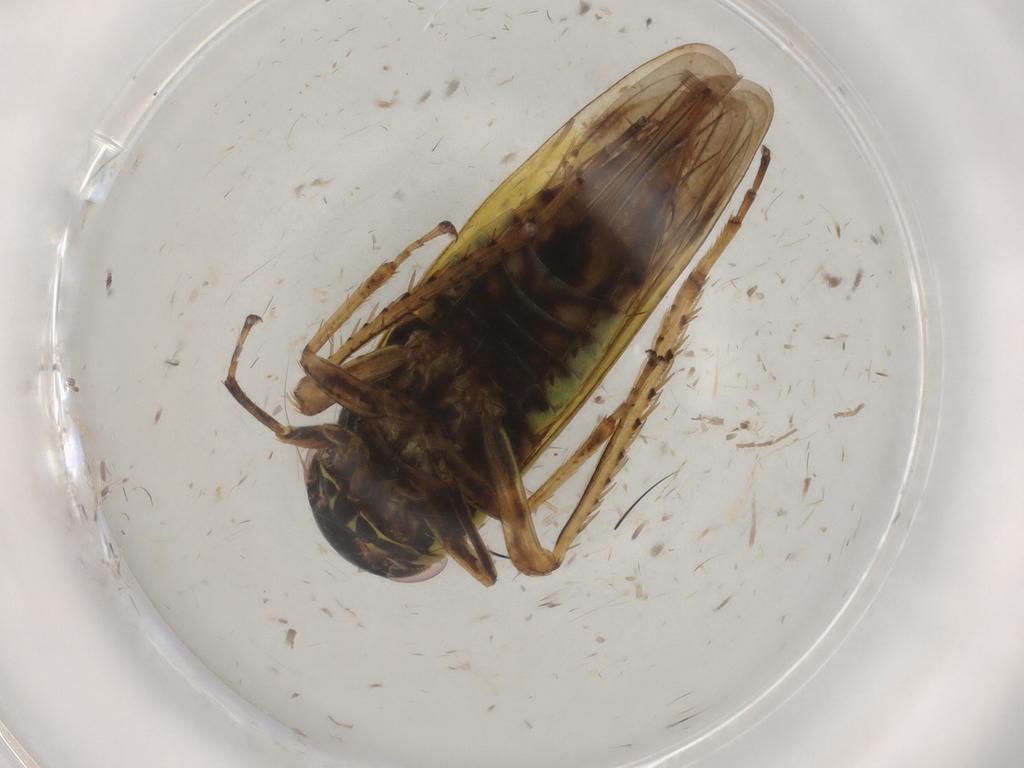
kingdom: Animalia
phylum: Arthropoda
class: Insecta
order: Hemiptera
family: Cicadellidae
